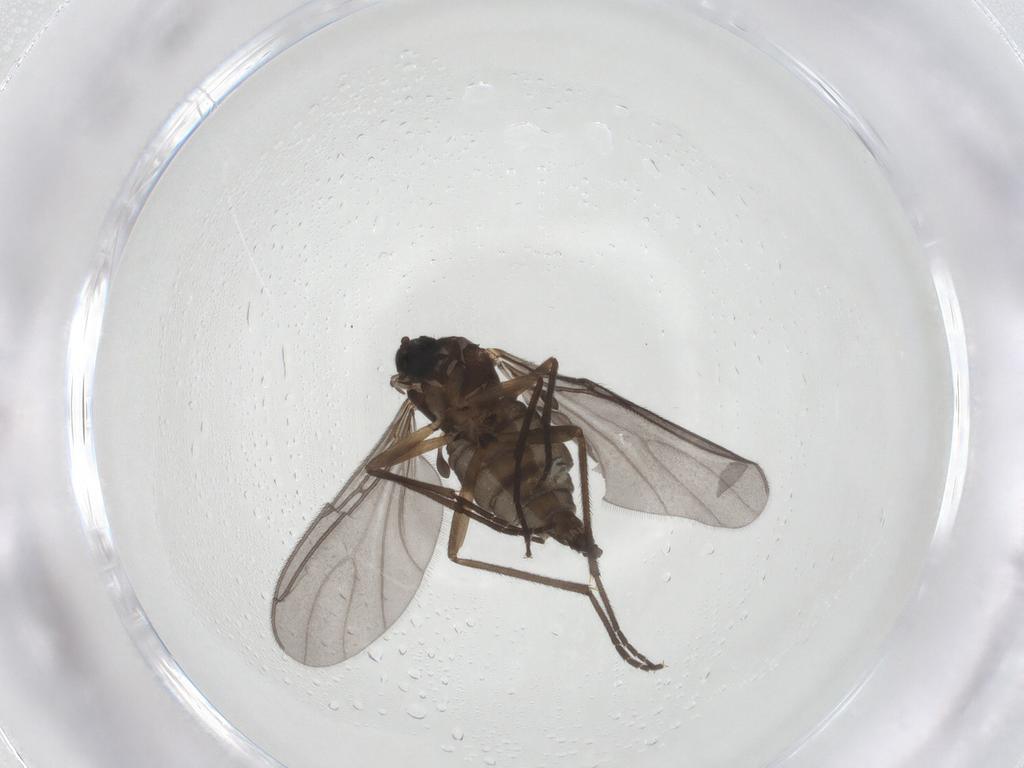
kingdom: Animalia
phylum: Arthropoda
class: Insecta
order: Diptera
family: Sciaridae
